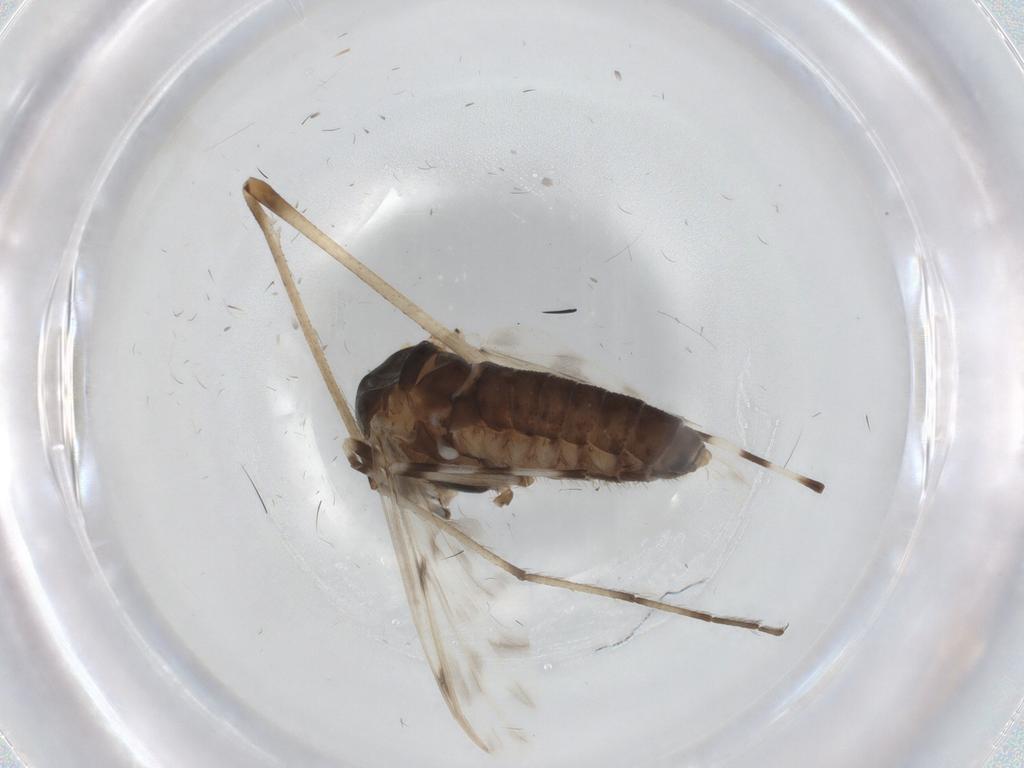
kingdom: Animalia
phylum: Arthropoda
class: Insecta
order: Diptera
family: Chironomidae
